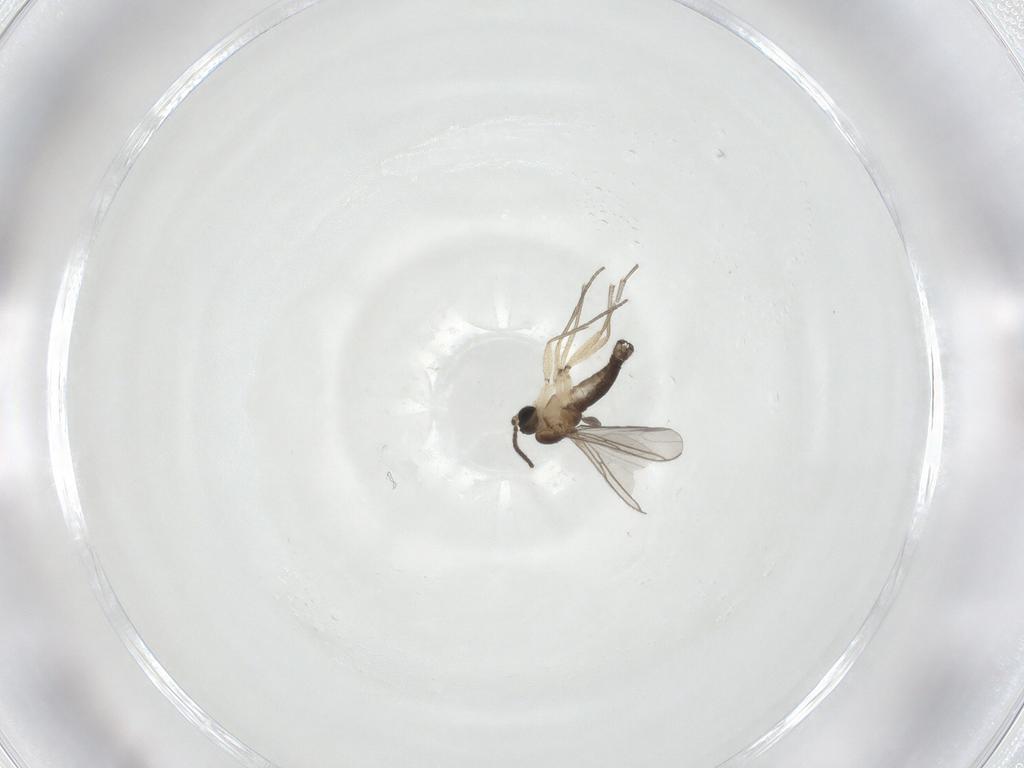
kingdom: Animalia
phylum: Arthropoda
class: Insecta
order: Diptera
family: Sciaridae
